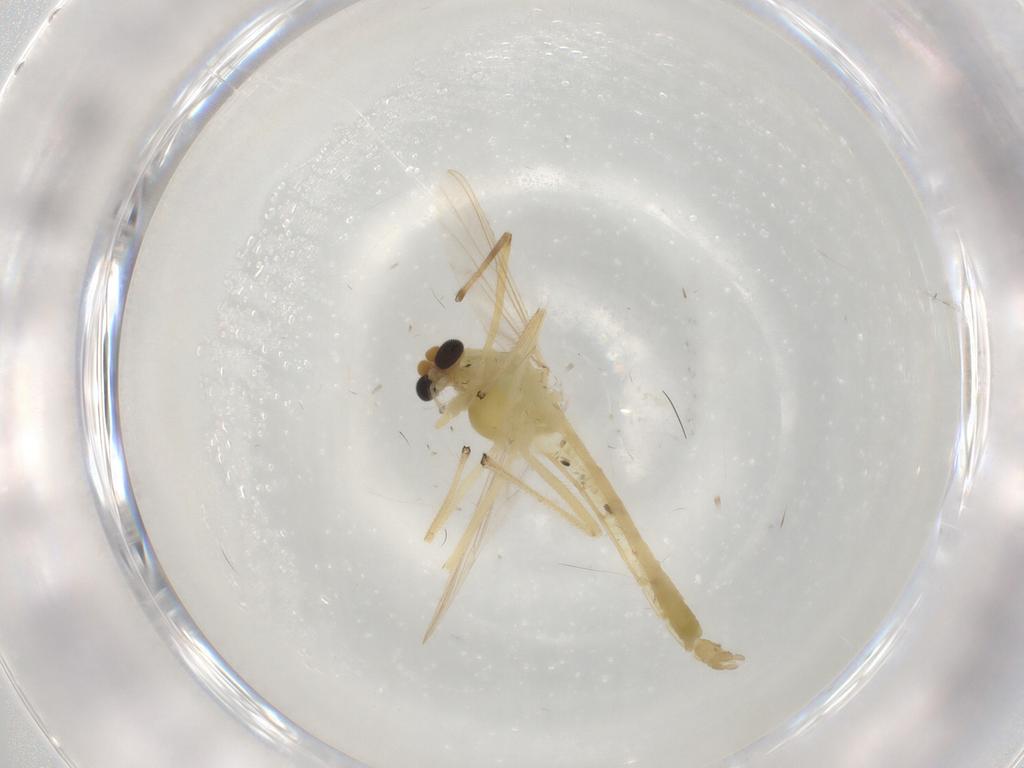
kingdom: Animalia
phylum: Arthropoda
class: Insecta
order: Diptera
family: Chironomidae
